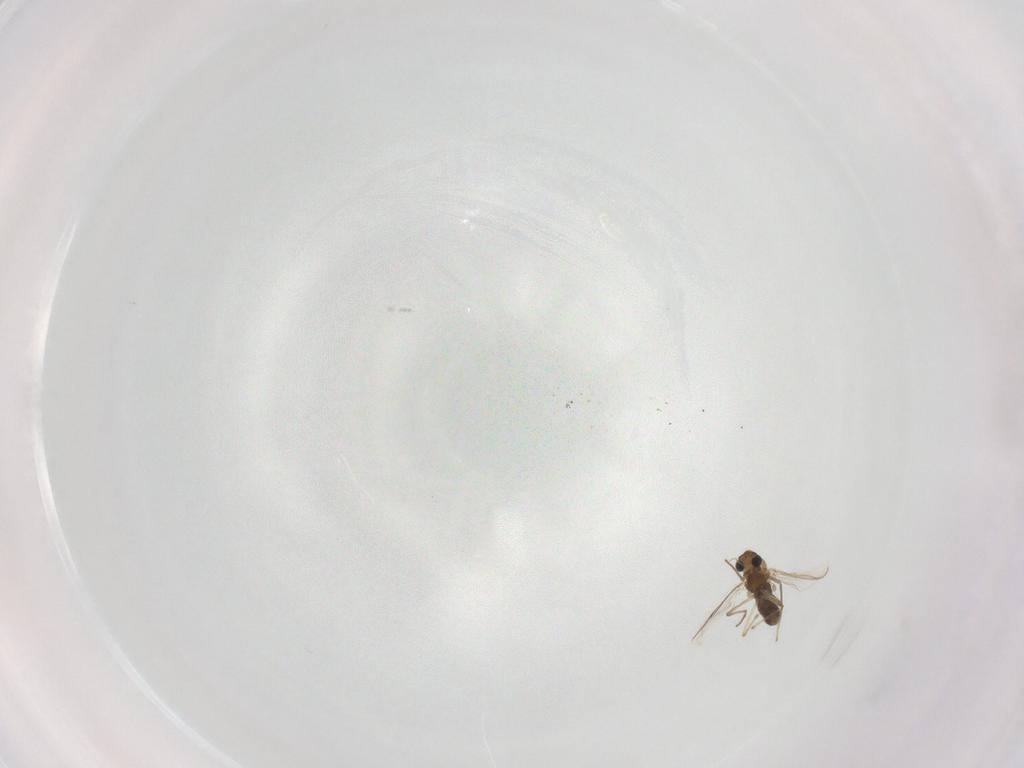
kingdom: Animalia
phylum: Arthropoda
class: Insecta
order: Diptera
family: Chironomidae
